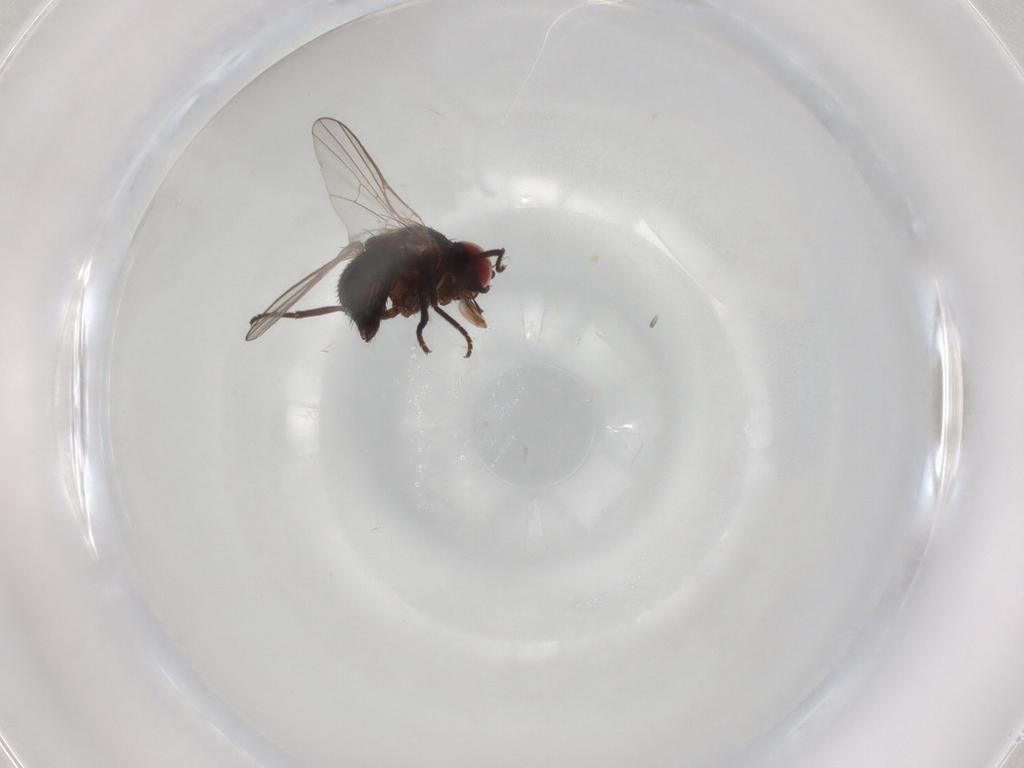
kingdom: Animalia
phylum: Arthropoda
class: Insecta
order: Diptera
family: Agromyzidae
